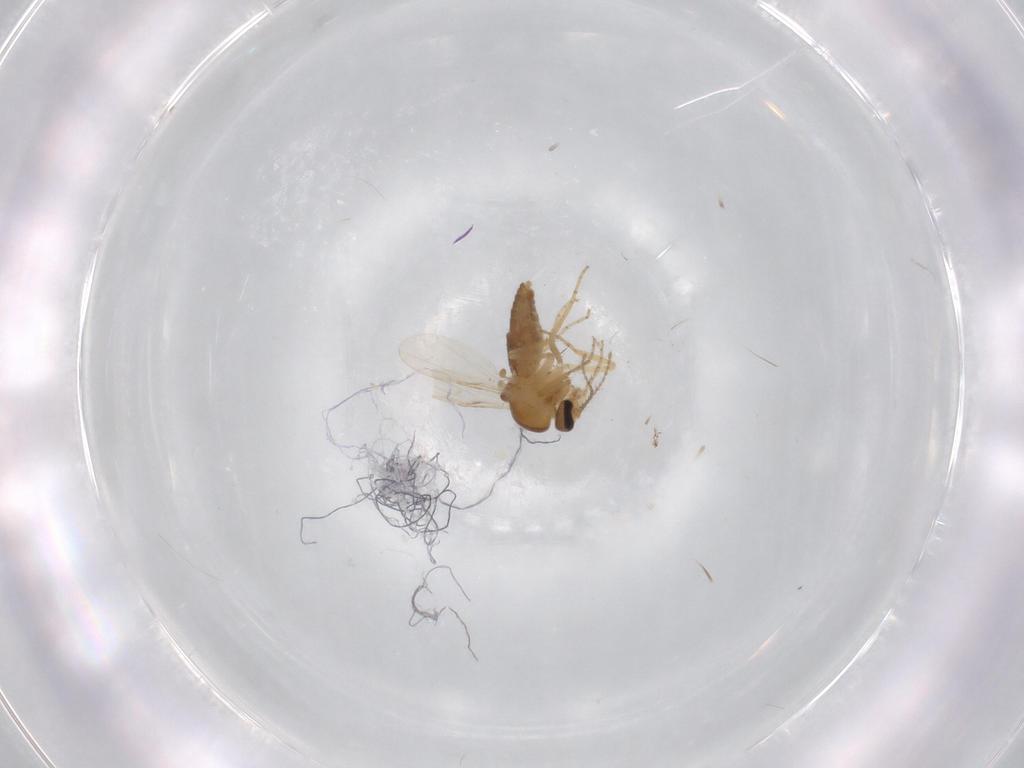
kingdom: Animalia
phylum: Arthropoda
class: Insecta
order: Diptera
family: Ceratopogonidae
